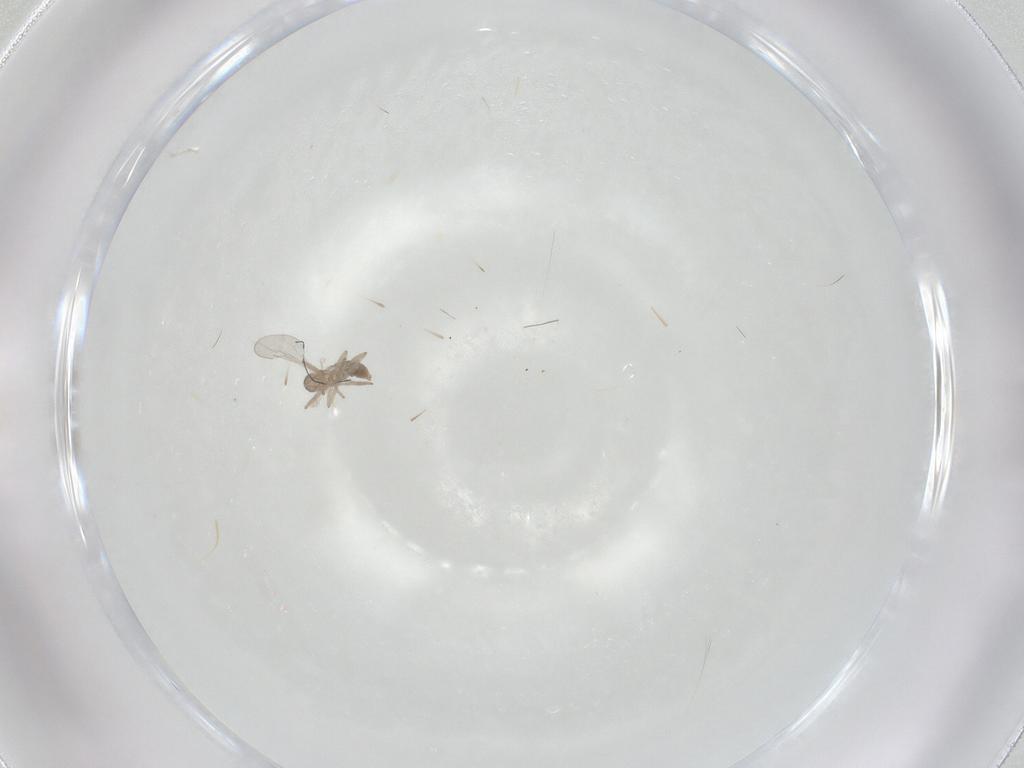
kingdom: Animalia
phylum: Arthropoda
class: Insecta
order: Diptera
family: Cecidomyiidae
